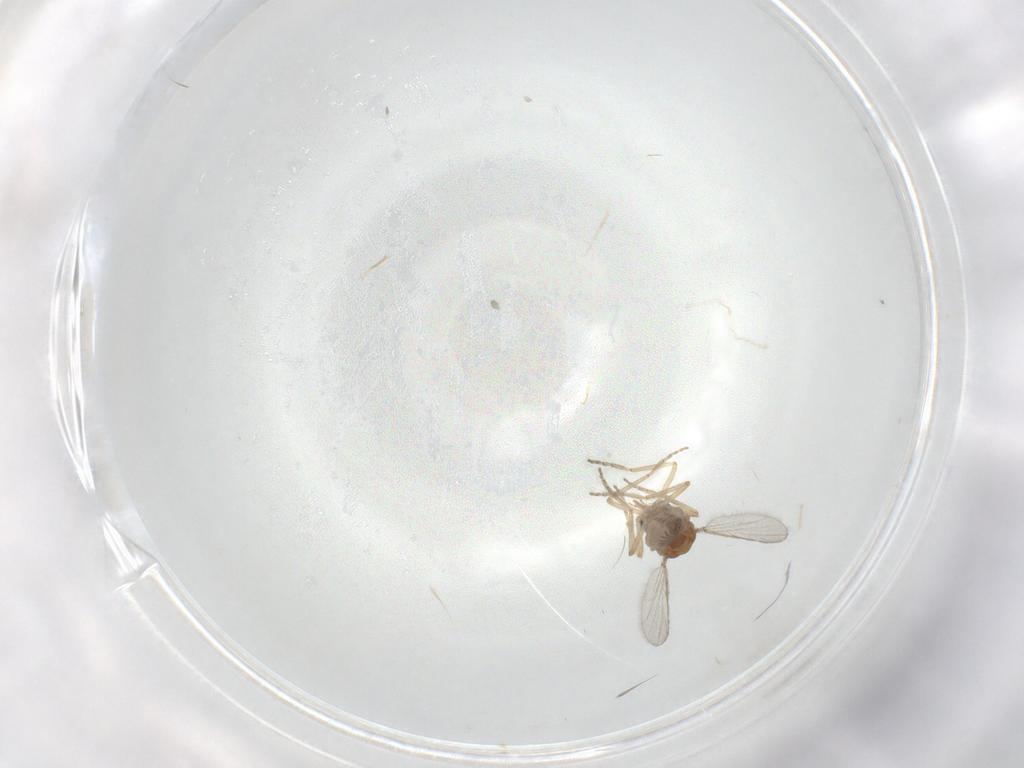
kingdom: Animalia
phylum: Arthropoda
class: Insecta
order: Diptera
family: Ceratopogonidae
